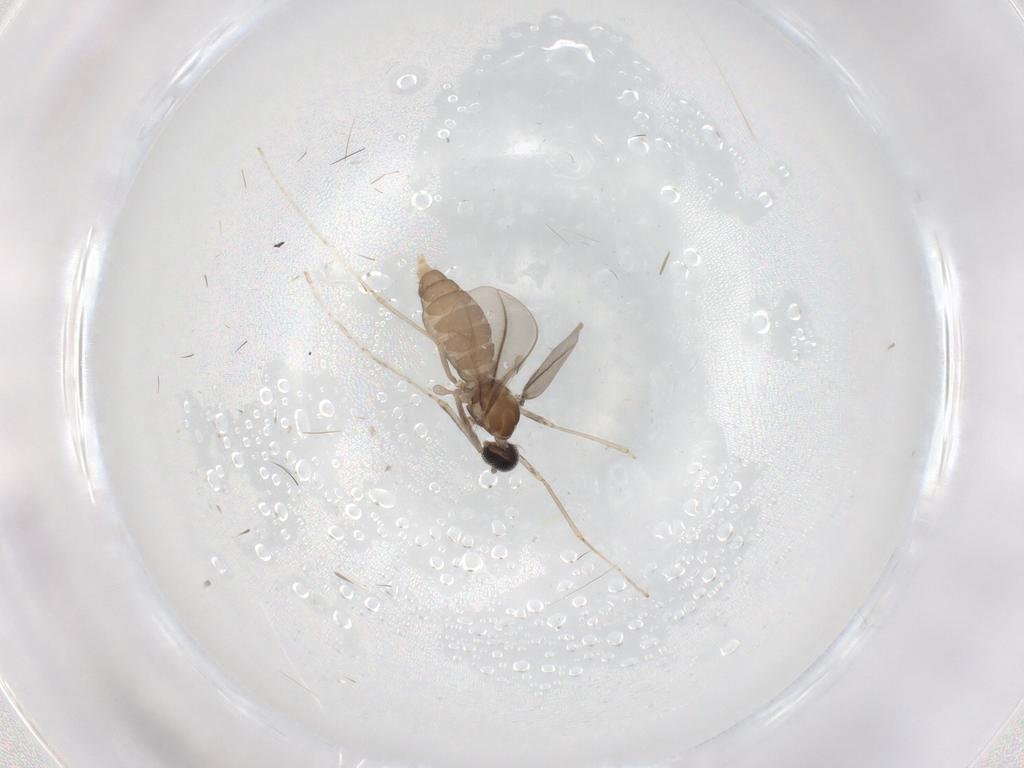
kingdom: Animalia
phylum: Arthropoda
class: Insecta
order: Diptera
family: Cecidomyiidae
